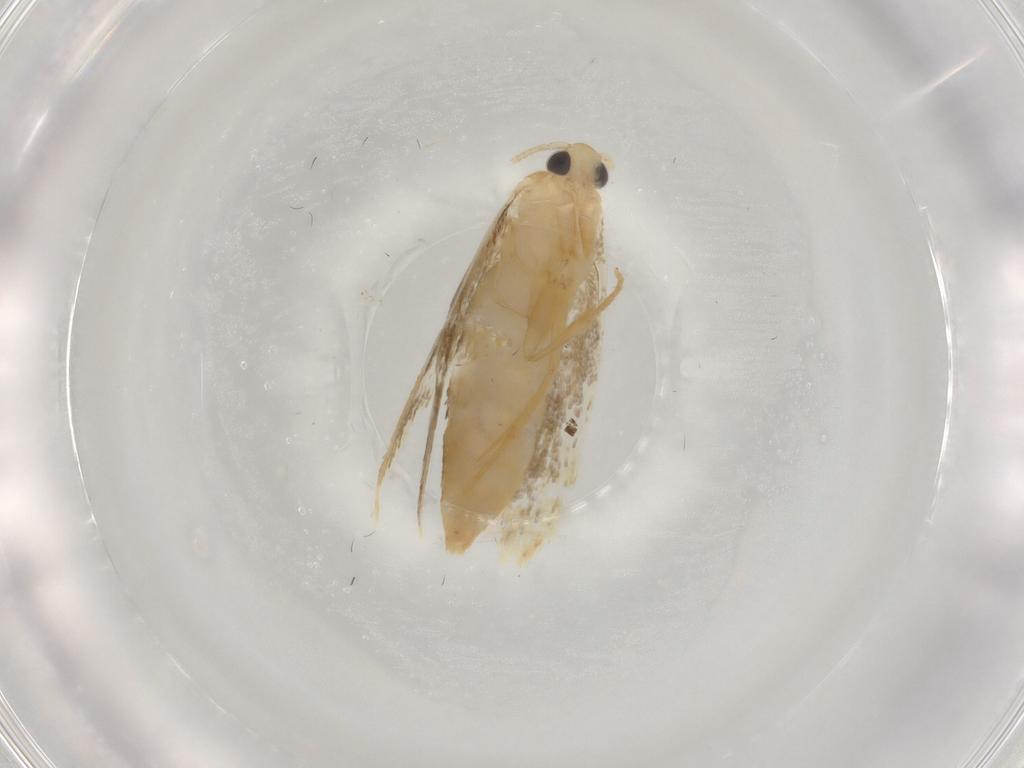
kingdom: Animalia
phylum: Arthropoda
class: Insecta
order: Lepidoptera
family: Tineidae
